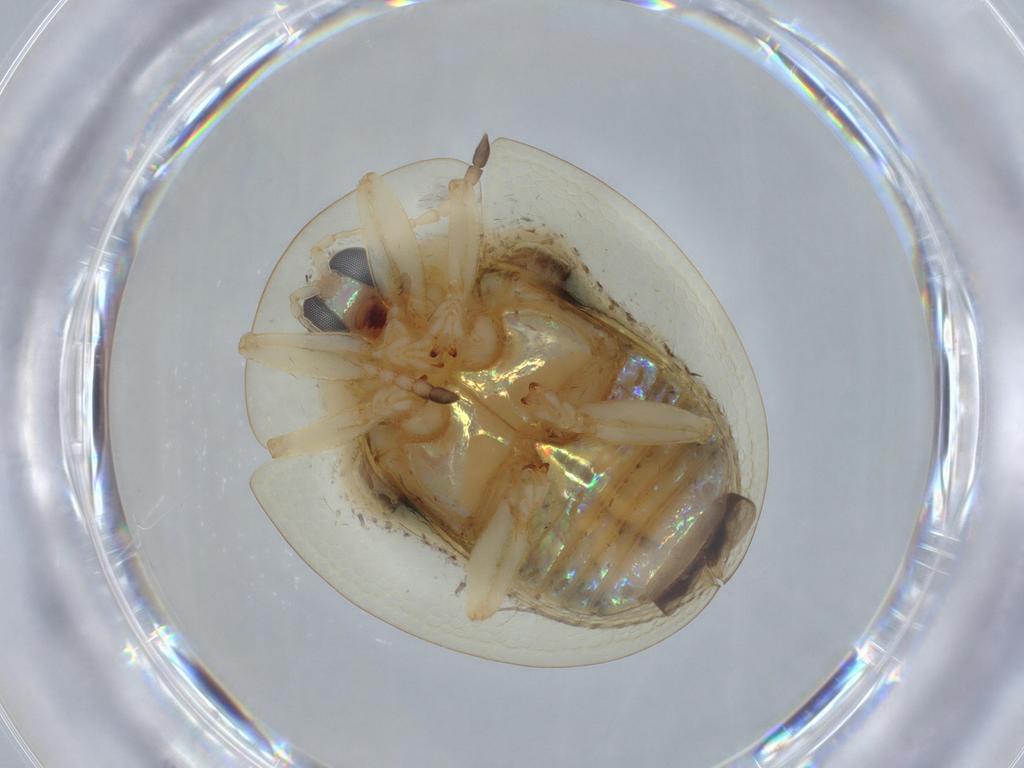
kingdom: Animalia
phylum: Arthropoda
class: Insecta
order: Coleoptera
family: Chrysomelidae
